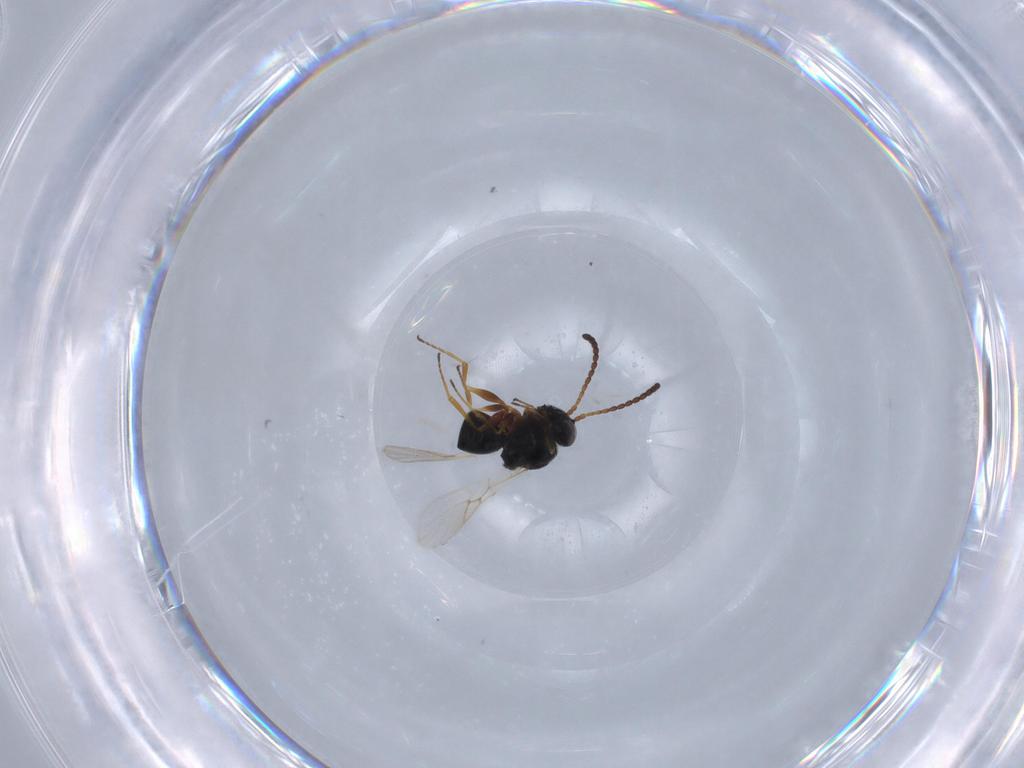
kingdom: Animalia
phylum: Arthropoda
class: Insecta
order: Hymenoptera
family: Figitidae
